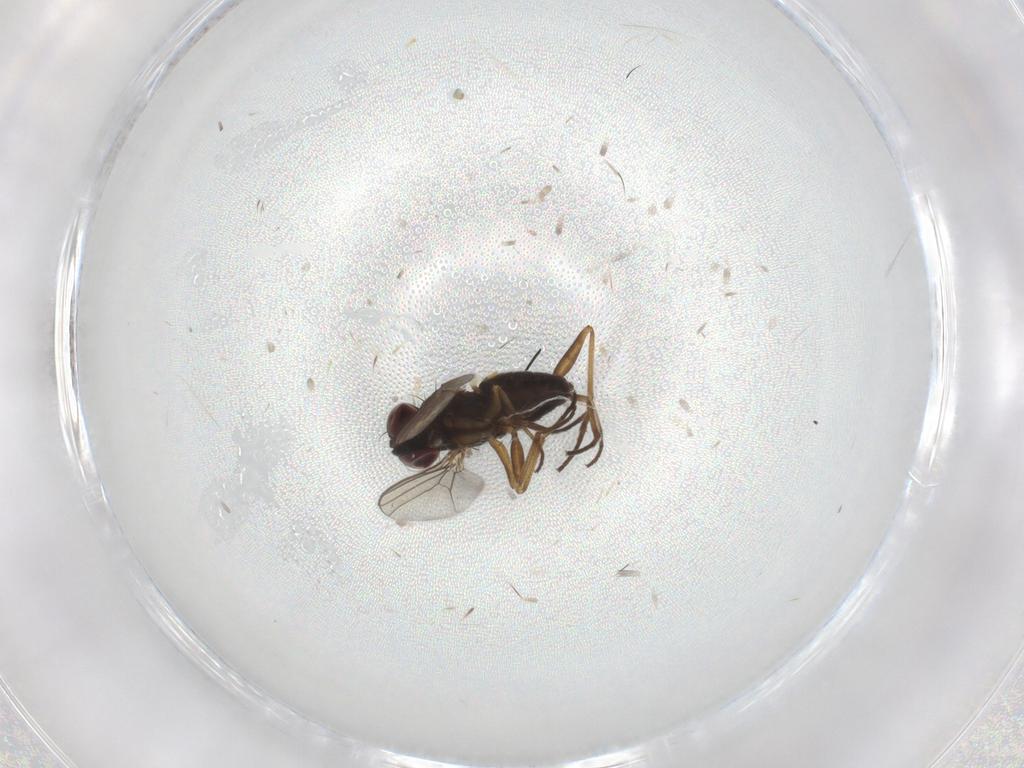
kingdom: Animalia
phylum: Arthropoda
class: Insecta
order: Diptera
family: Dolichopodidae
